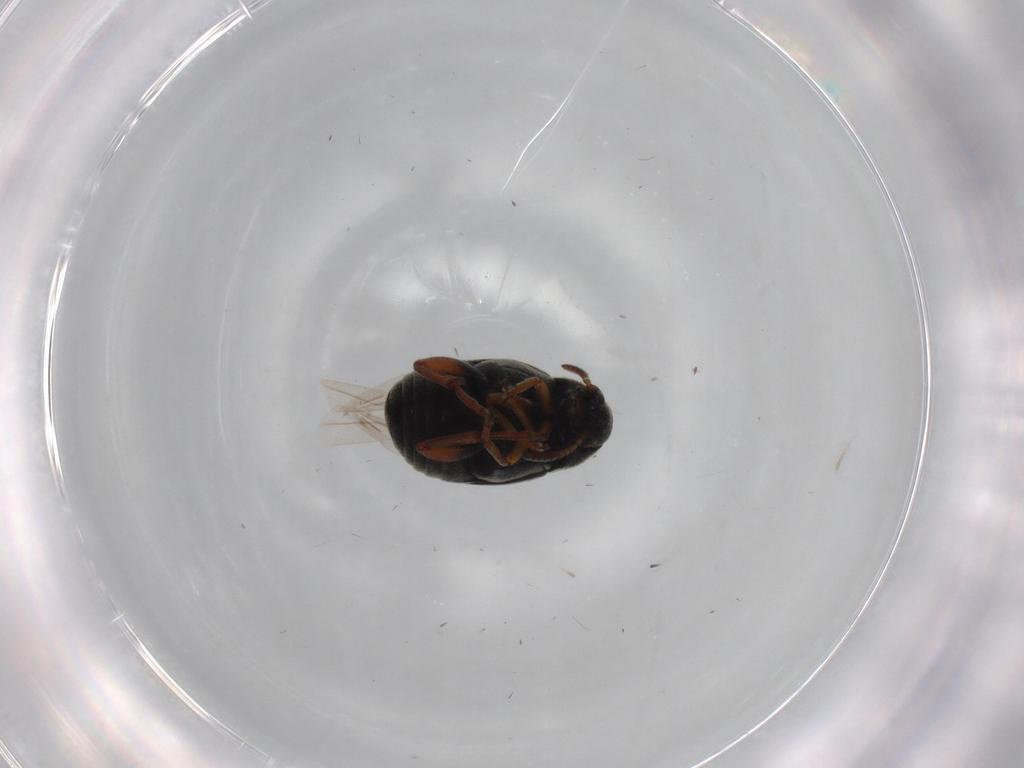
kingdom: Animalia
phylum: Arthropoda
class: Insecta
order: Coleoptera
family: Chrysomelidae
